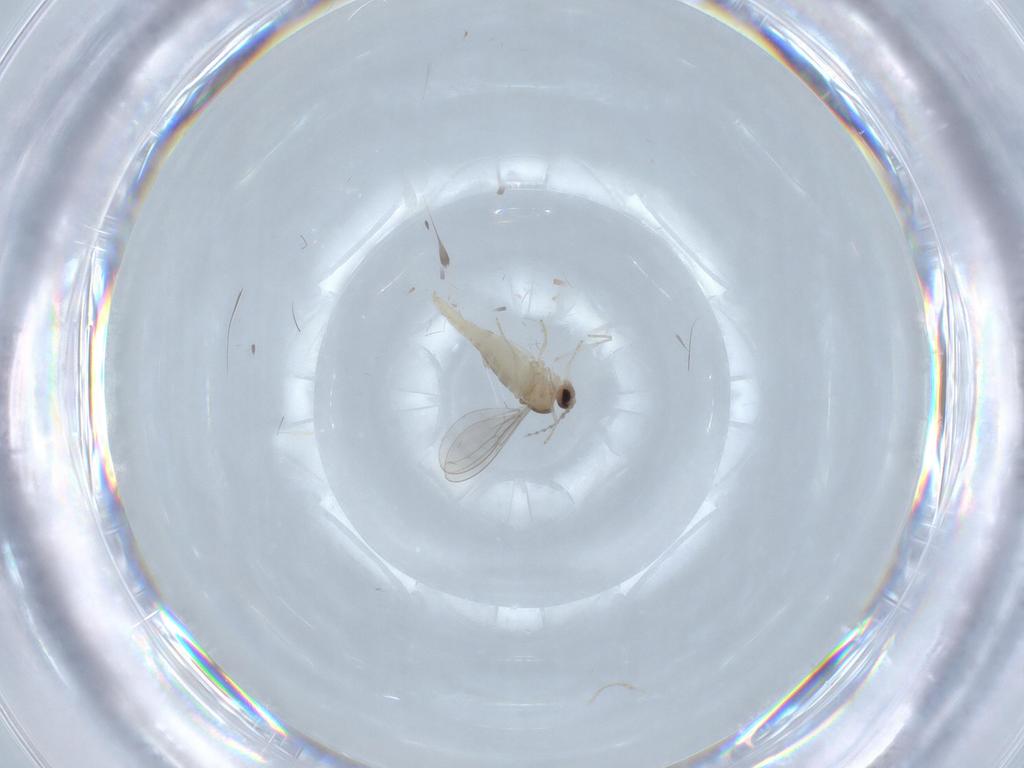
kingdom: Animalia
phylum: Arthropoda
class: Insecta
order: Diptera
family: Cecidomyiidae
